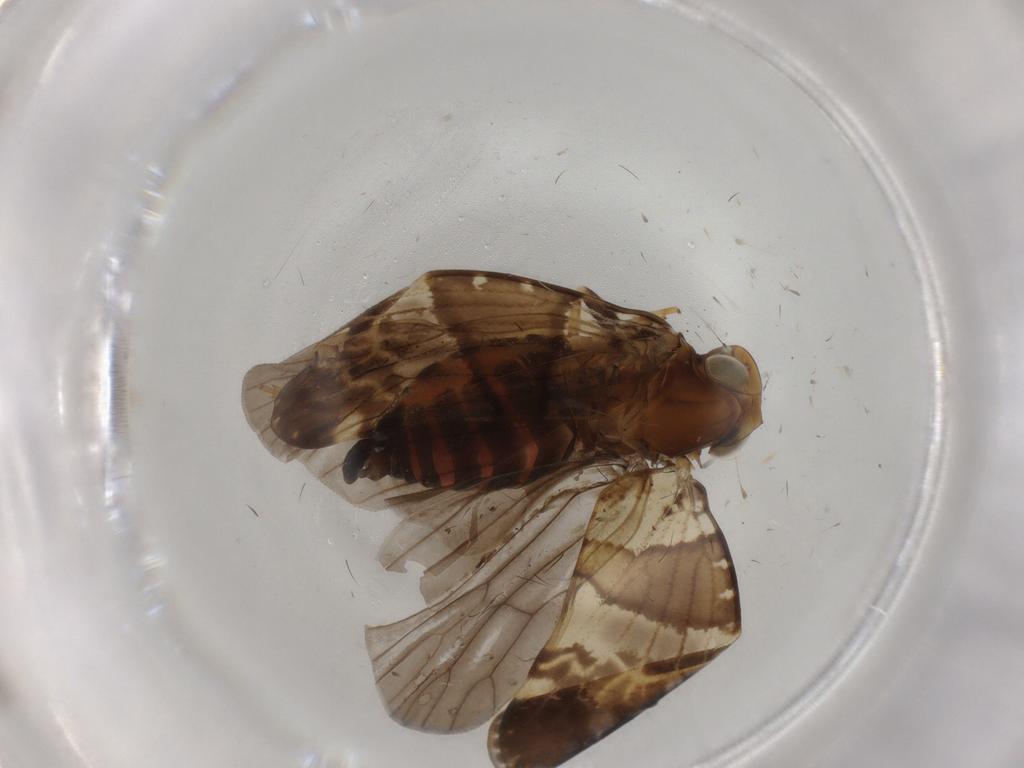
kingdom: Animalia
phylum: Arthropoda
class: Insecta
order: Hemiptera
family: Cixiidae
